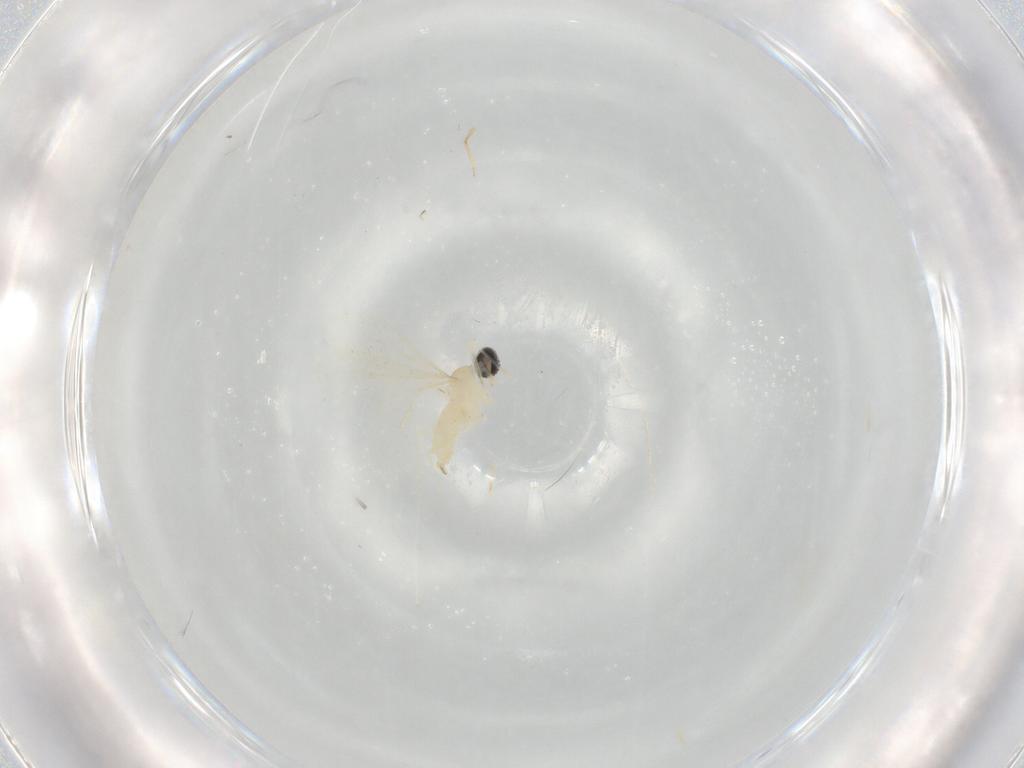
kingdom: Animalia
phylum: Arthropoda
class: Insecta
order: Diptera
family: Cecidomyiidae
